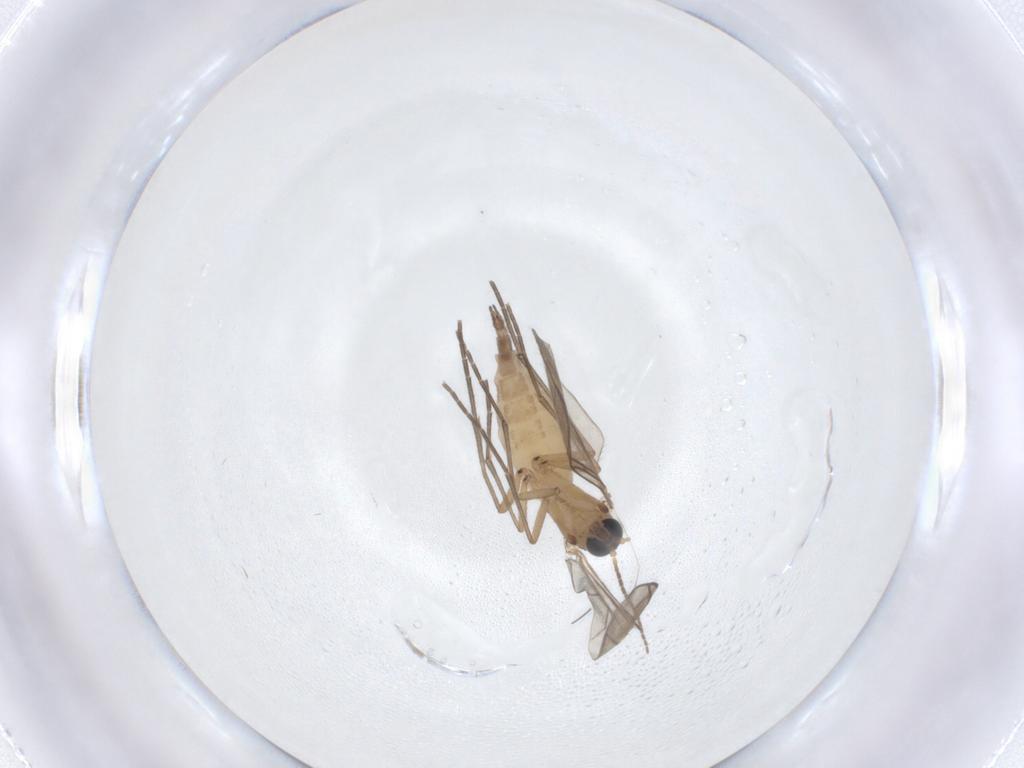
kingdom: Animalia
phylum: Arthropoda
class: Insecta
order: Diptera
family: Sciaridae
